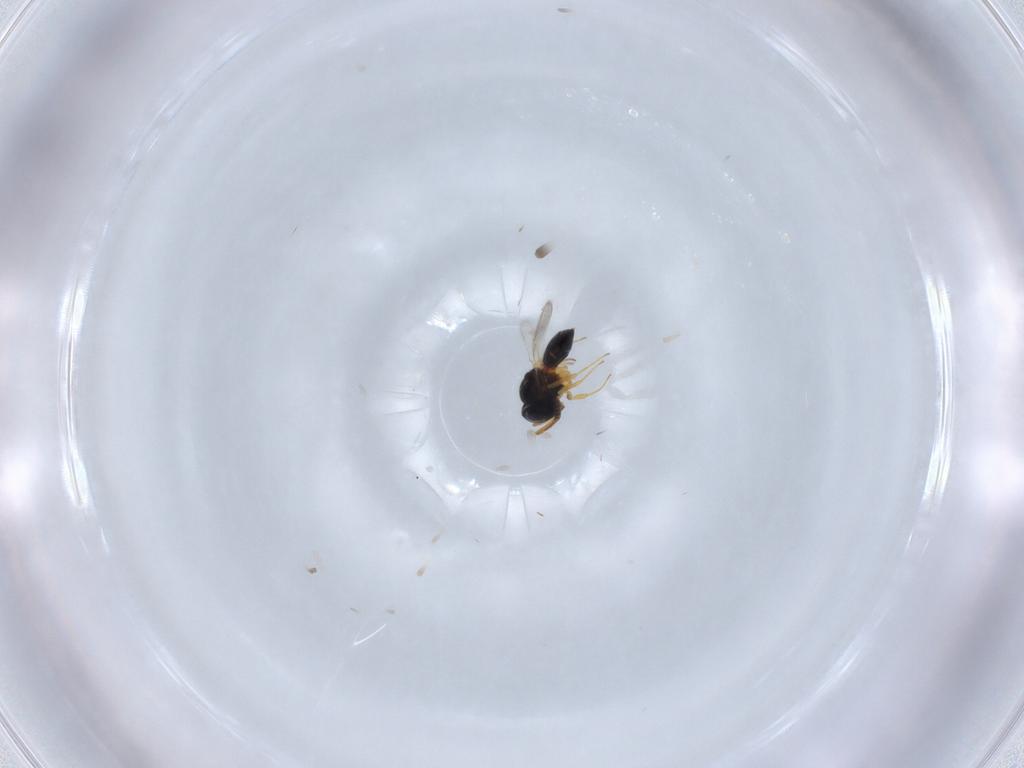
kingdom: Animalia
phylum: Arthropoda
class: Insecta
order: Hymenoptera
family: Scelionidae
